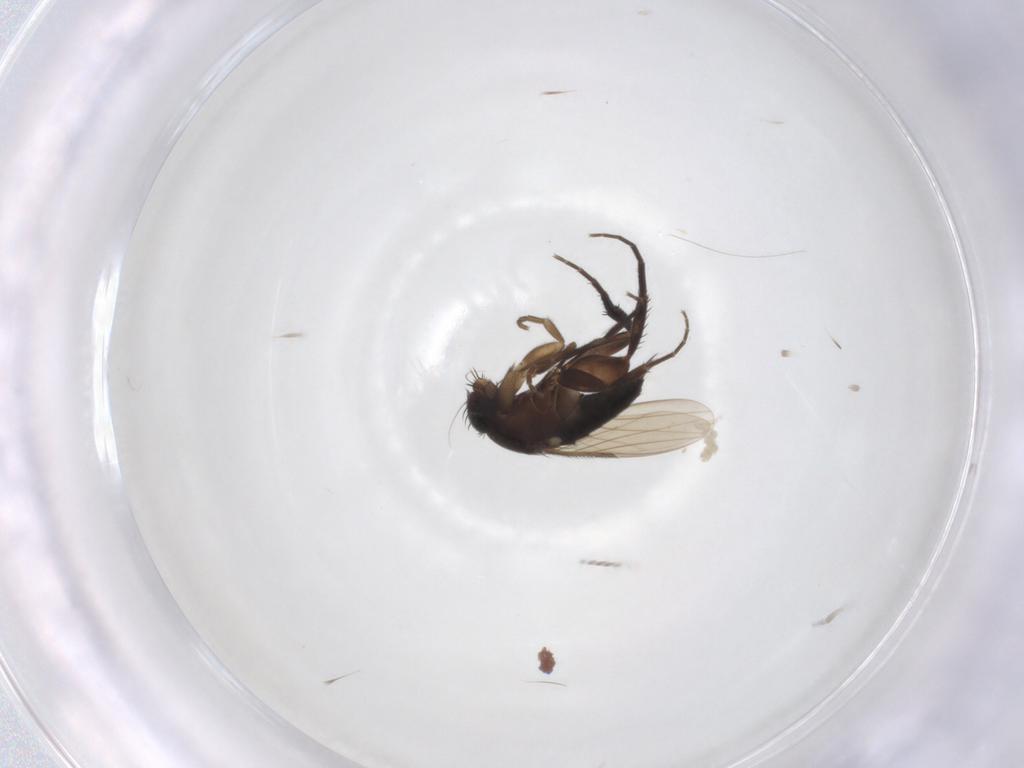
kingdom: Animalia
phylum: Arthropoda
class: Insecta
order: Diptera
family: Phoridae
